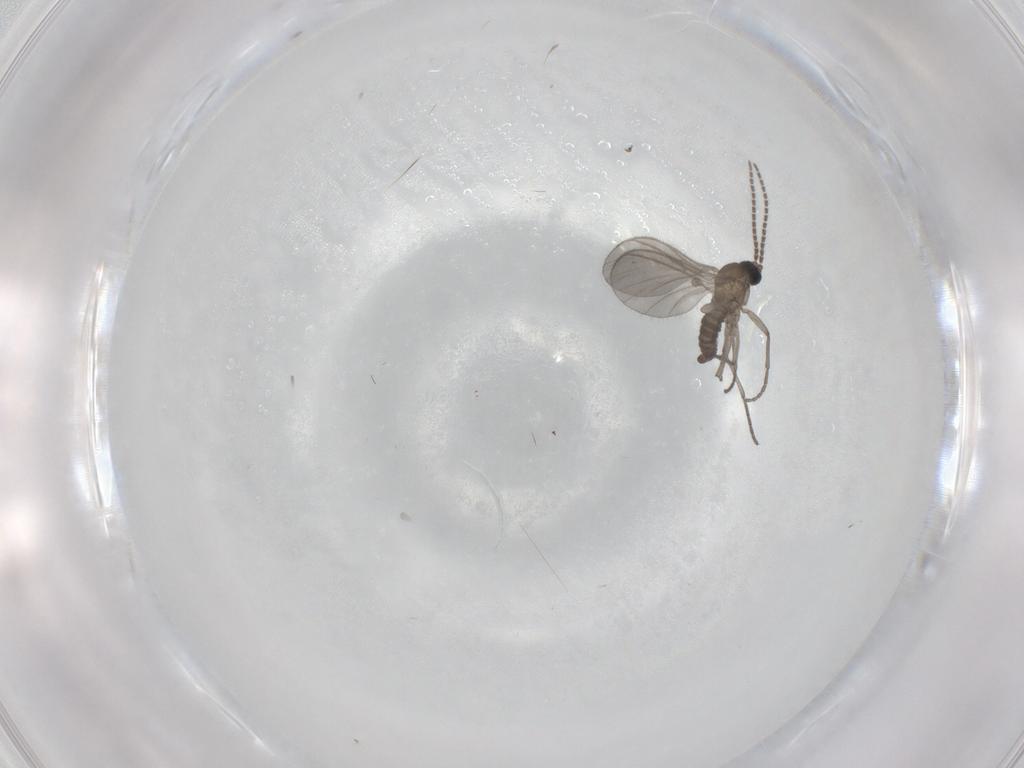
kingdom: Animalia
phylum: Arthropoda
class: Insecta
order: Diptera
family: Sciaridae
